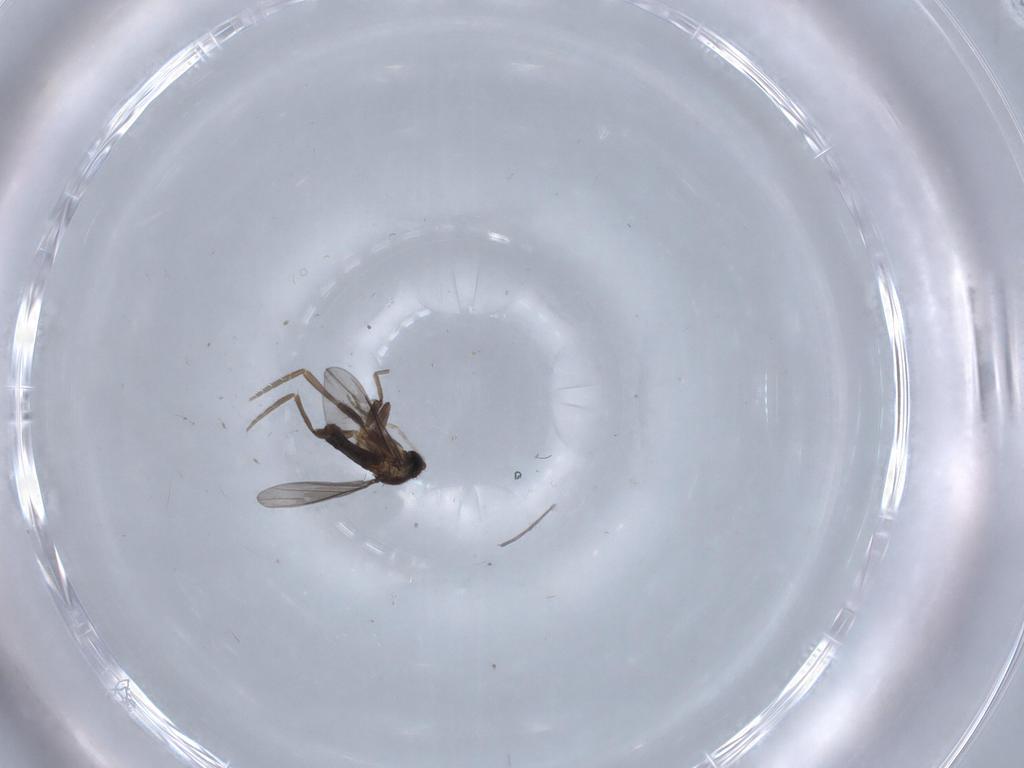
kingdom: Animalia
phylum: Arthropoda
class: Insecta
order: Diptera
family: Phoridae
